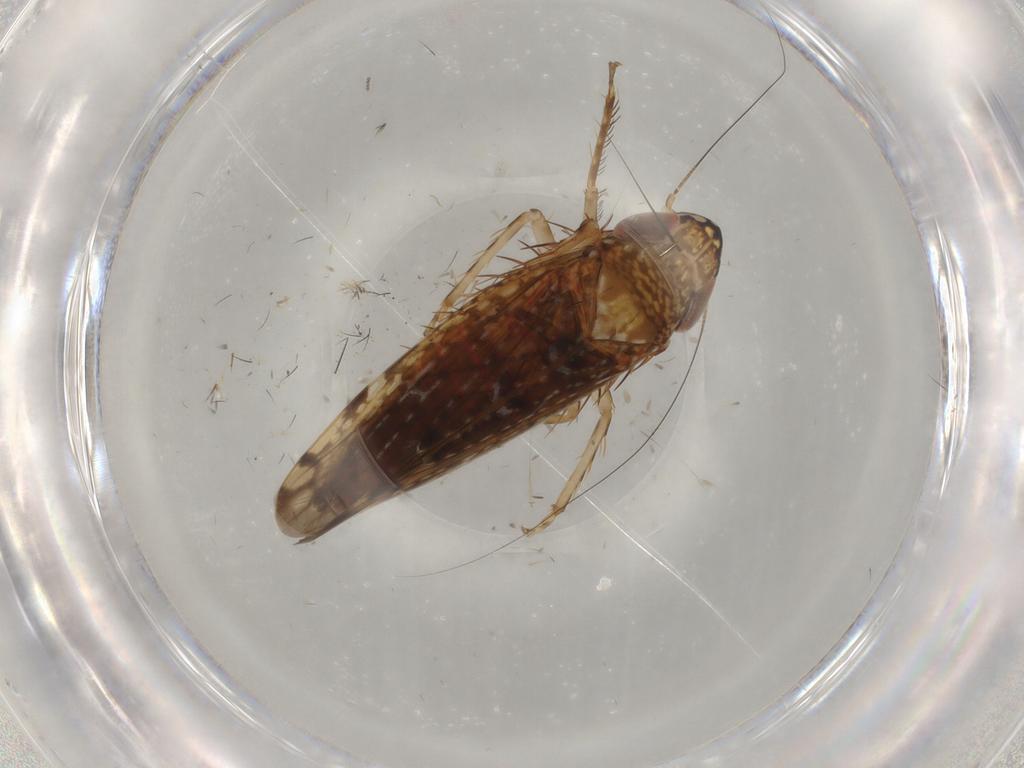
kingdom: Animalia
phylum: Arthropoda
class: Insecta
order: Hemiptera
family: Cicadellidae
